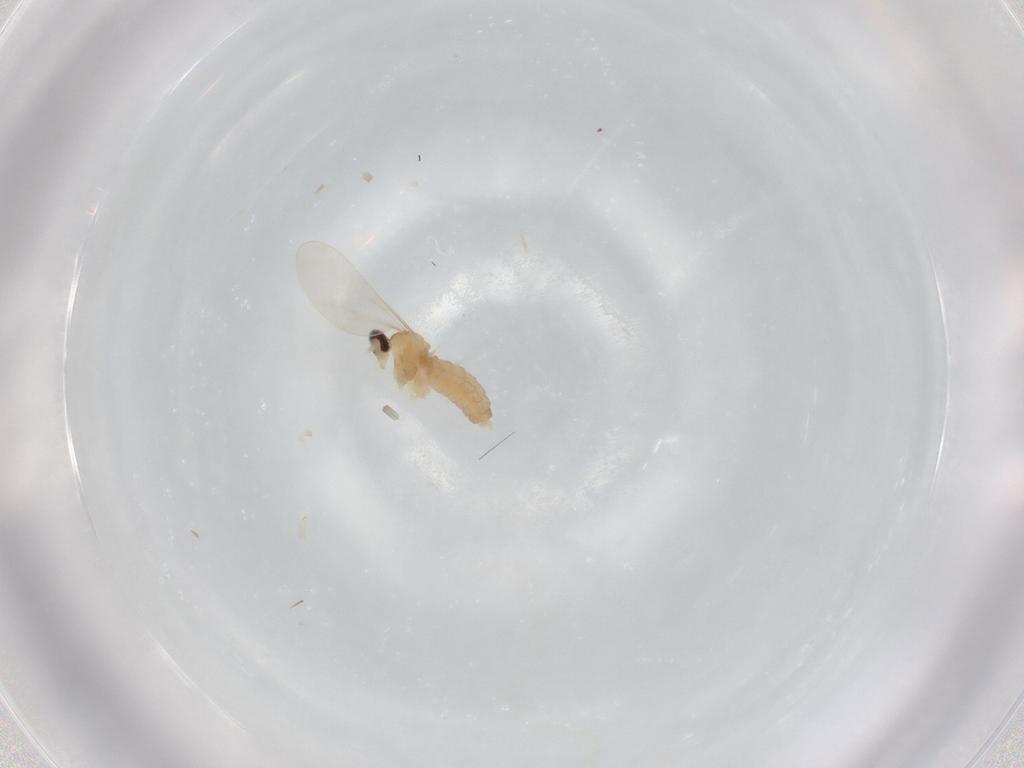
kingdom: Animalia
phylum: Arthropoda
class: Insecta
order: Diptera
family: Cecidomyiidae
